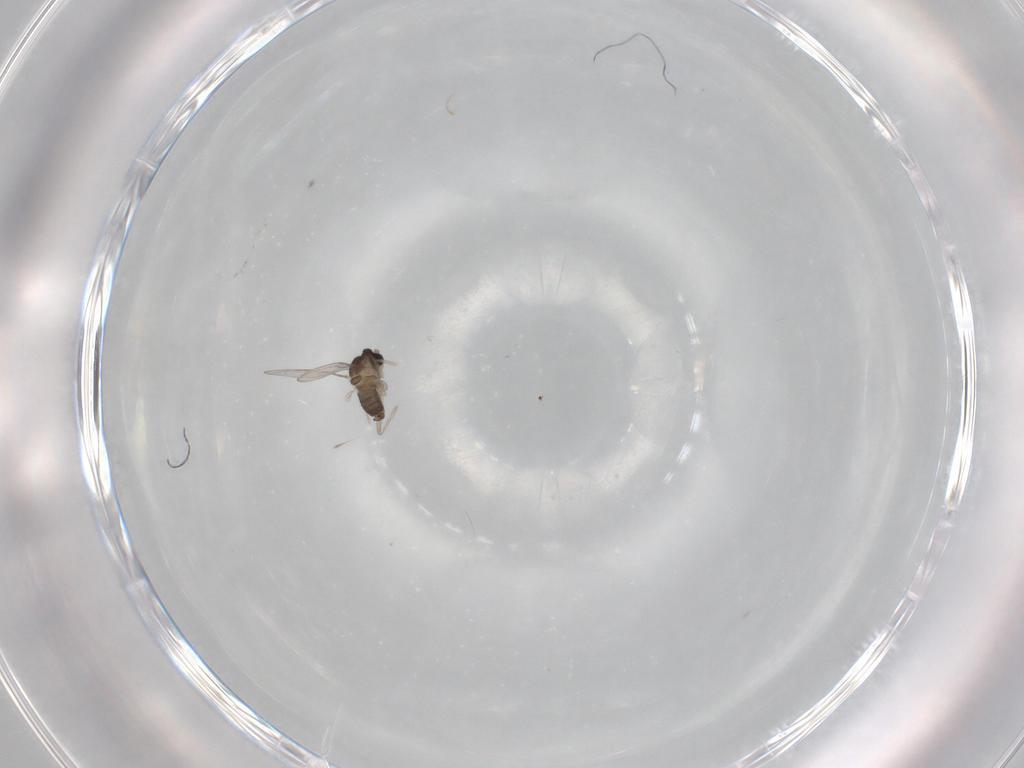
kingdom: Animalia
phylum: Arthropoda
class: Insecta
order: Diptera
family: Cecidomyiidae
